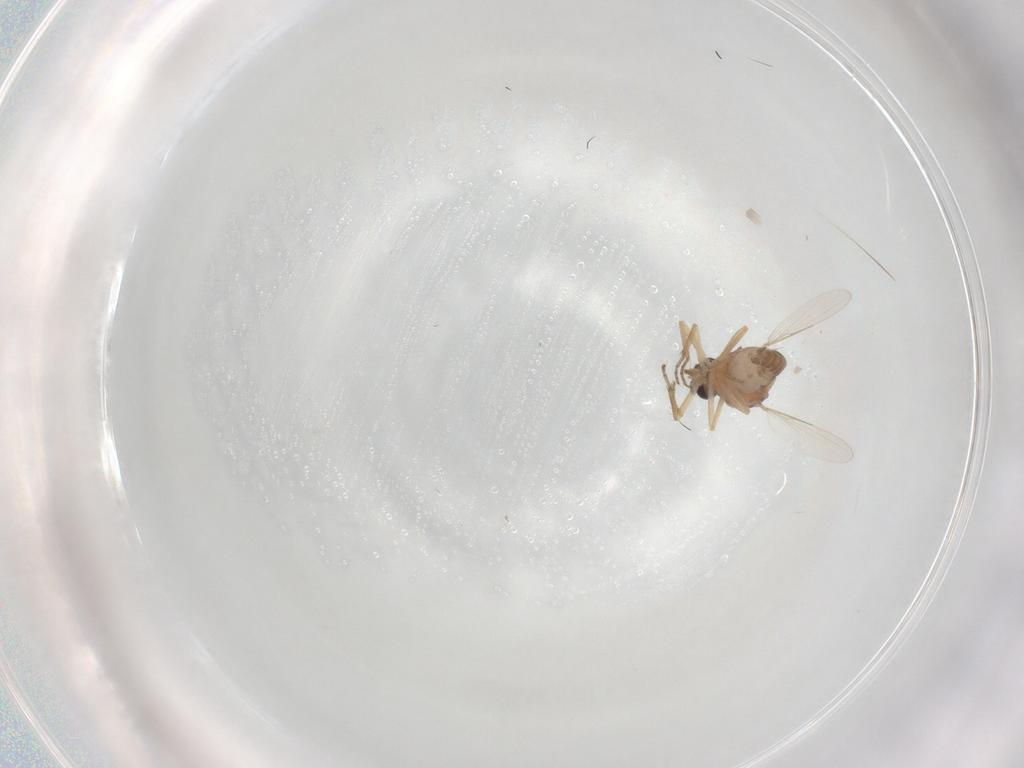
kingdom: Animalia
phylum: Arthropoda
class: Insecta
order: Diptera
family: Ceratopogonidae
